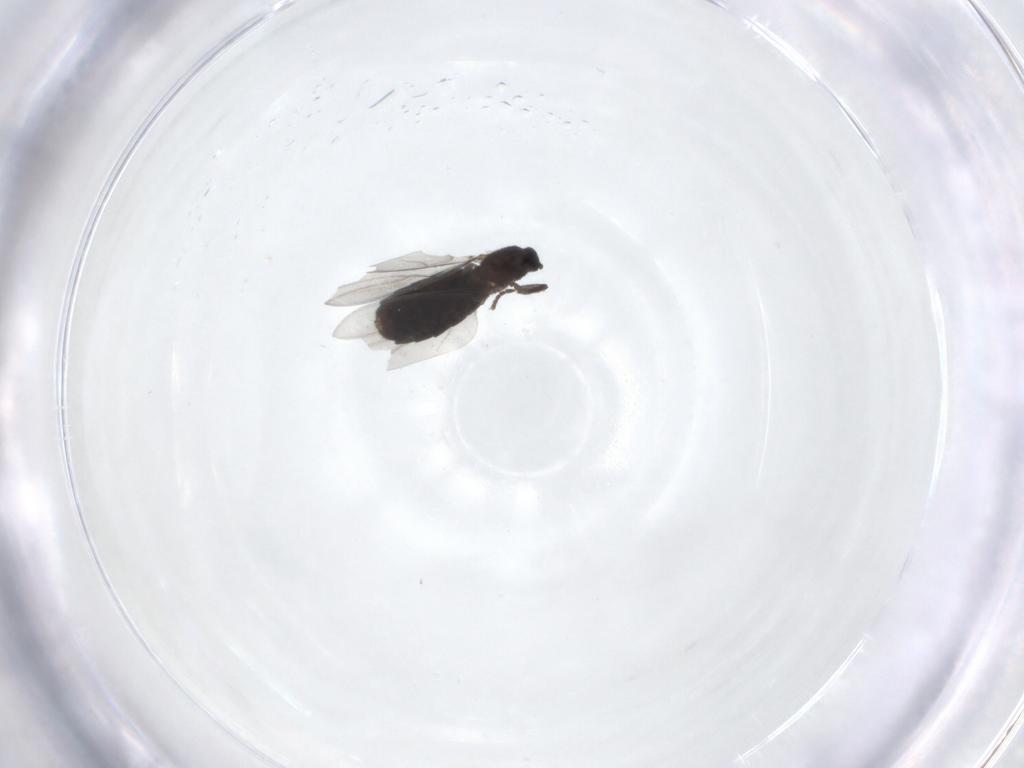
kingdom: Animalia
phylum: Arthropoda
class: Insecta
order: Diptera
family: Scatopsidae
